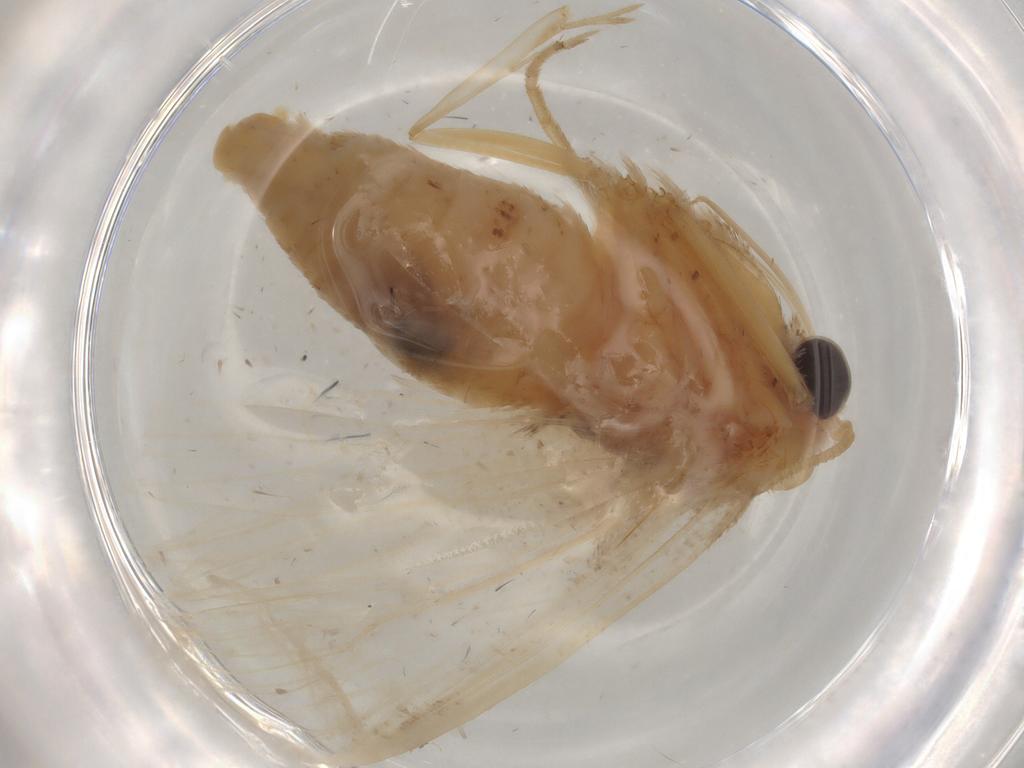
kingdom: Animalia
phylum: Arthropoda
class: Insecta
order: Lepidoptera
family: Nolidae
